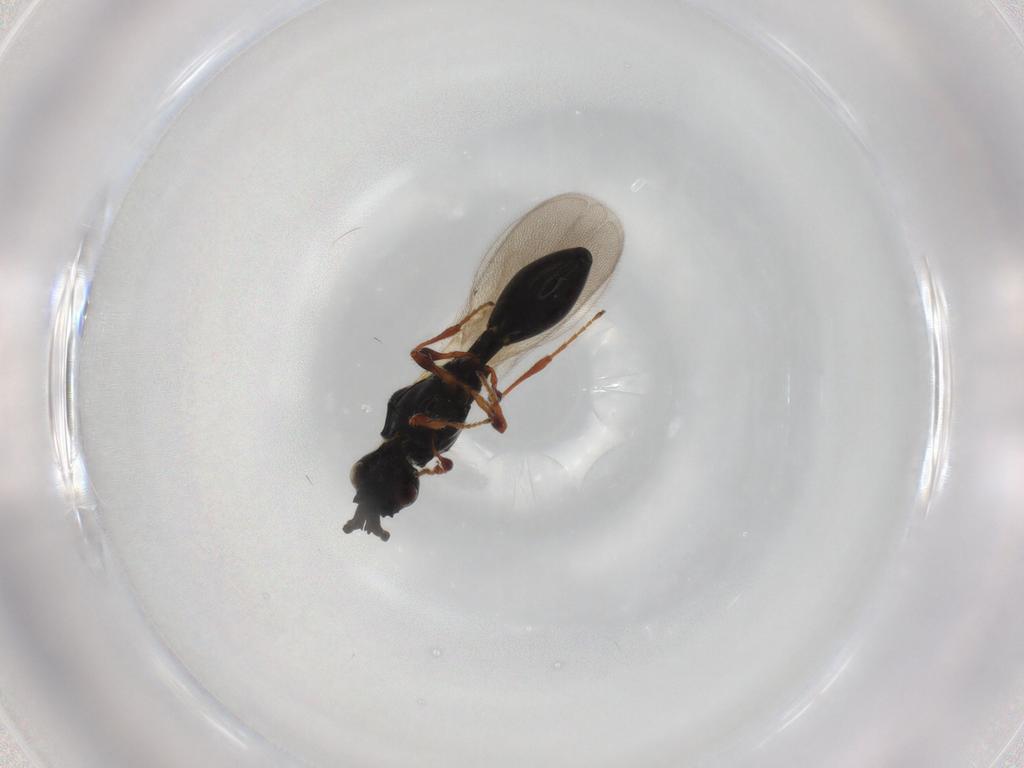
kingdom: Animalia
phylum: Arthropoda
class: Insecta
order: Hymenoptera
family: Diapriidae
